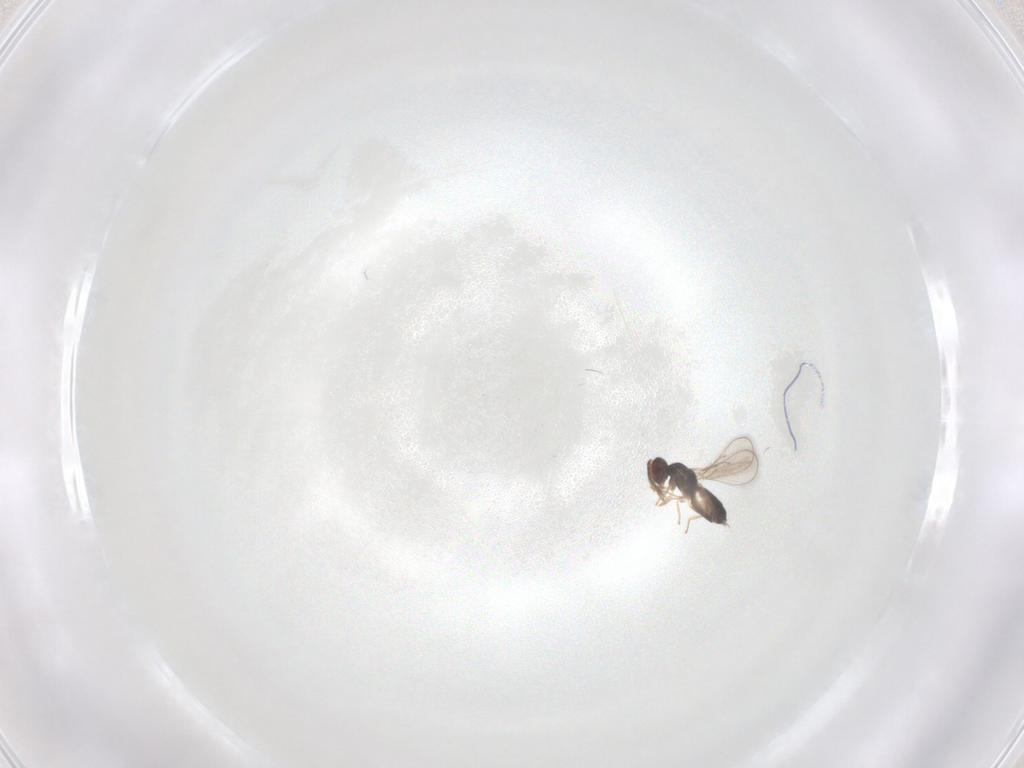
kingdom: Animalia
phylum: Arthropoda
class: Insecta
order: Hymenoptera
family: Eulophidae
